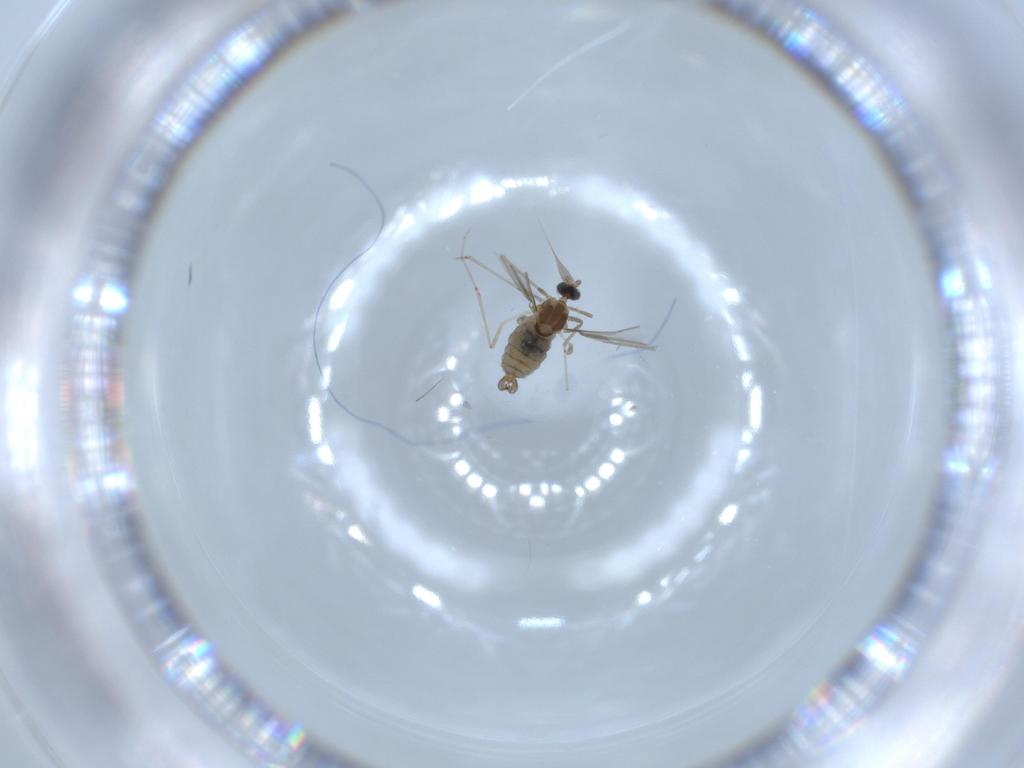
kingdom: Animalia
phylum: Arthropoda
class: Insecta
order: Diptera
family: Cecidomyiidae
